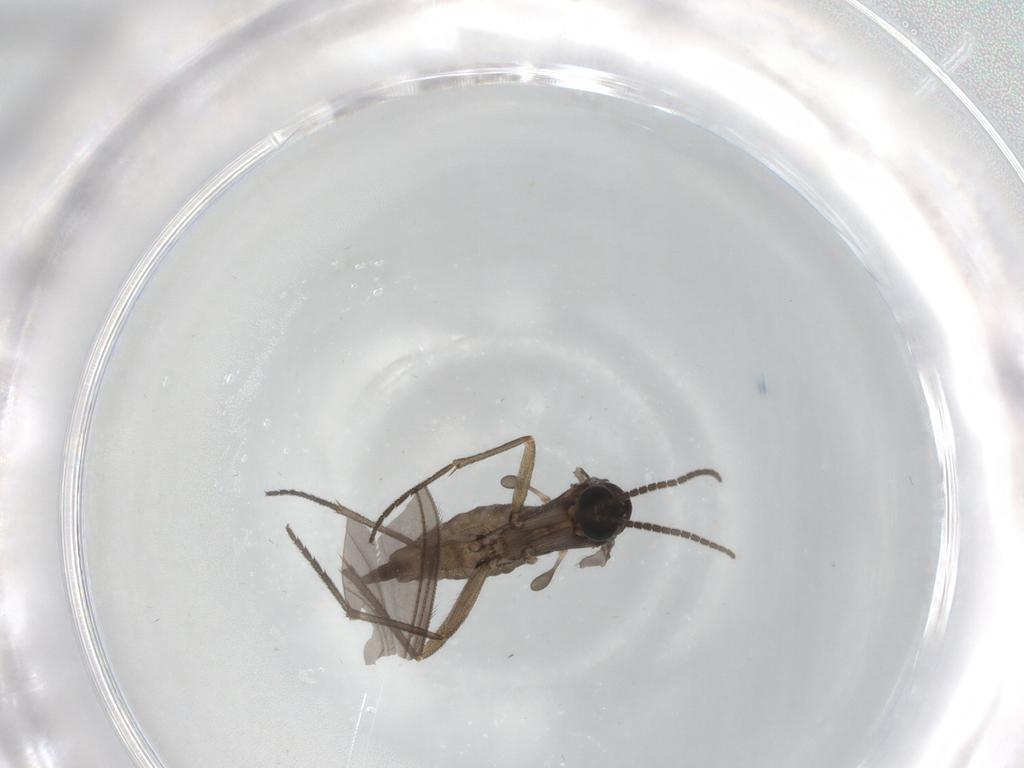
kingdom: Animalia
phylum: Arthropoda
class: Insecta
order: Diptera
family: Sciaridae
